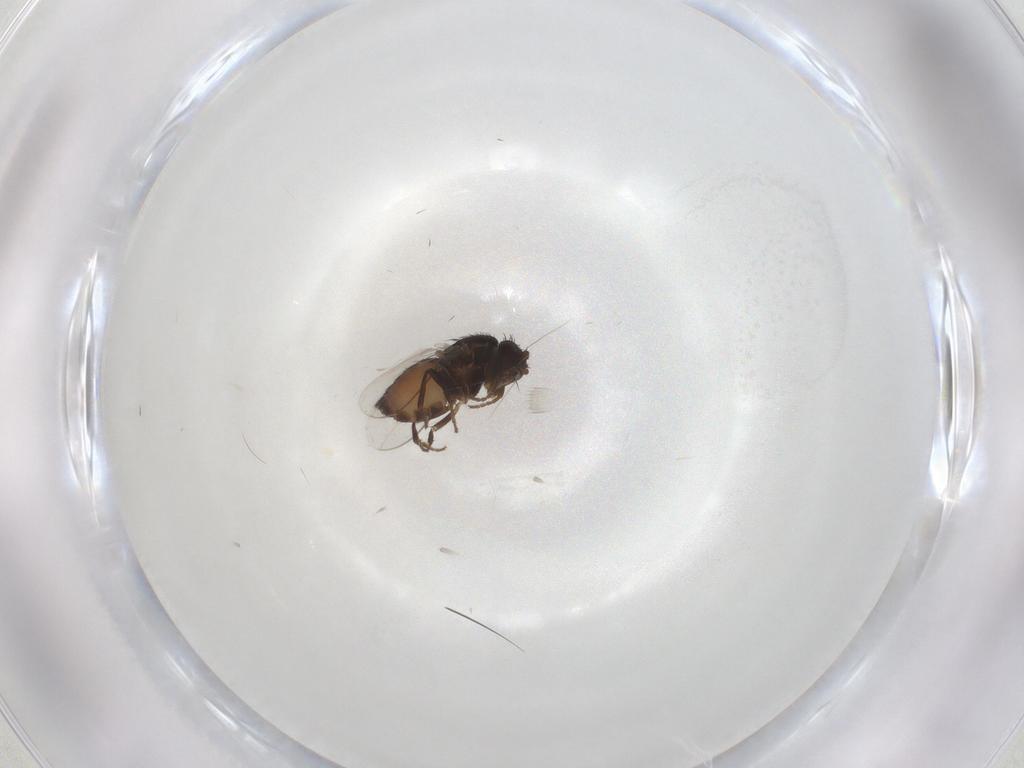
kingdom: Animalia
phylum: Arthropoda
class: Insecta
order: Diptera
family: Sphaeroceridae
